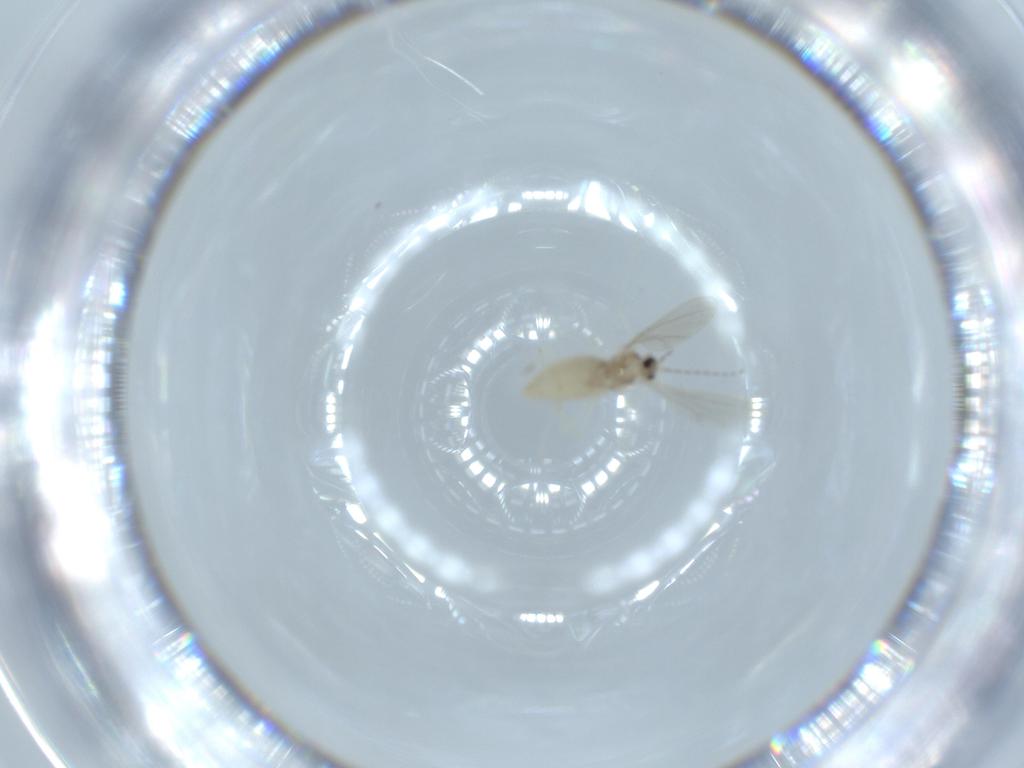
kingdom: Animalia
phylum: Arthropoda
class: Insecta
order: Diptera
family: Cecidomyiidae
